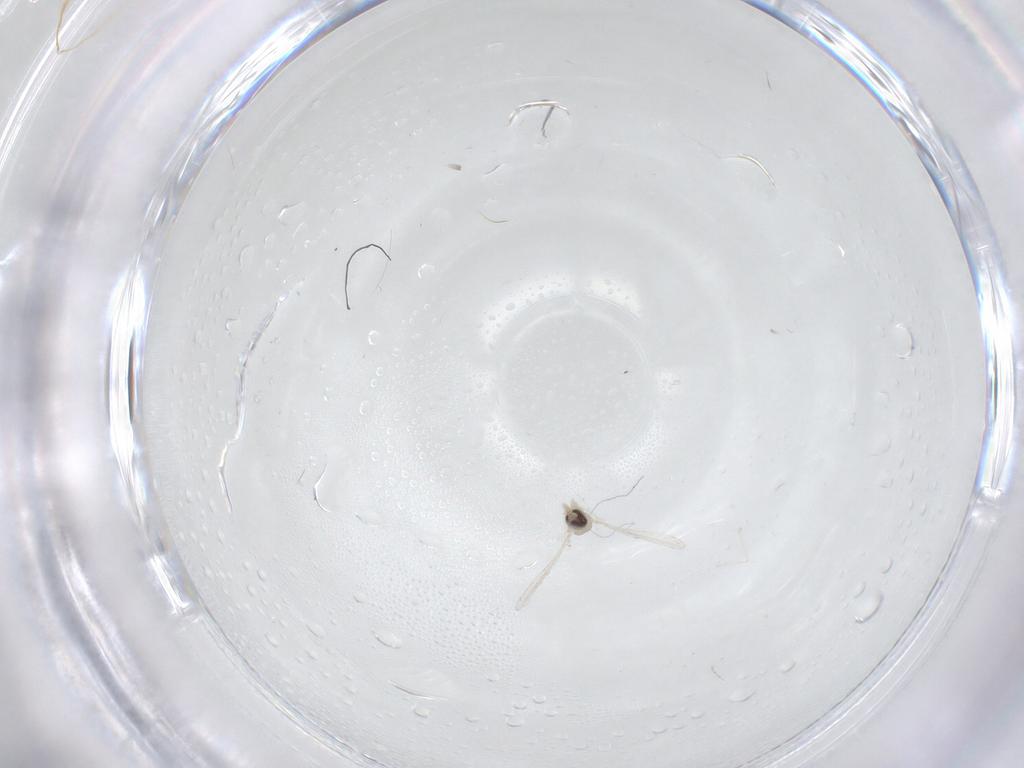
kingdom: Animalia
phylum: Arthropoda
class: Insecta
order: Diptera
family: Cecidomyiidae
